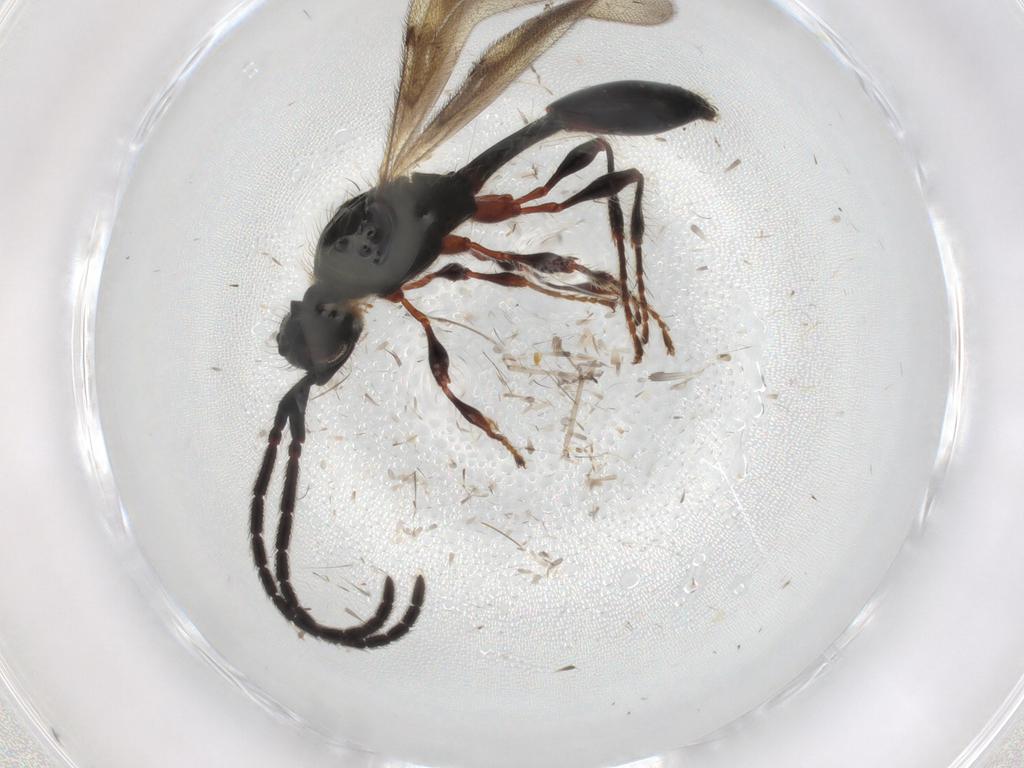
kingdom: Animalia
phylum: Arthropoda
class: Insecta
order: Hymenoptera
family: Diapriidae
